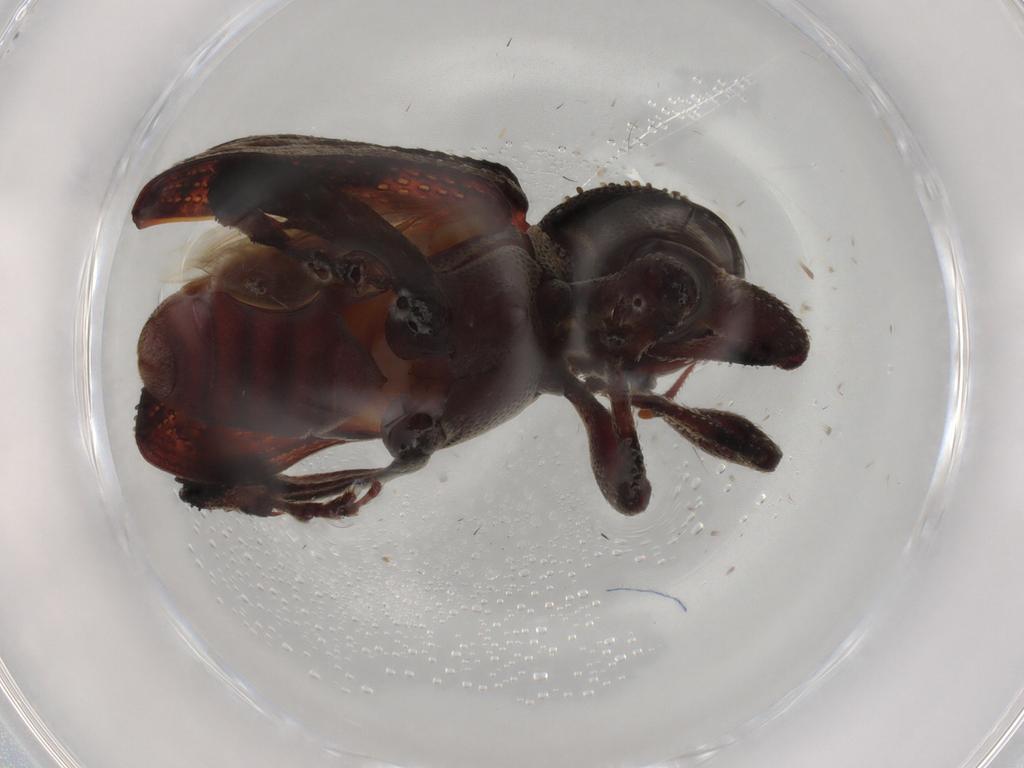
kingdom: Animalia
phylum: Arthropoda
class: Insecta
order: Coleoptera
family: Curculionidae
